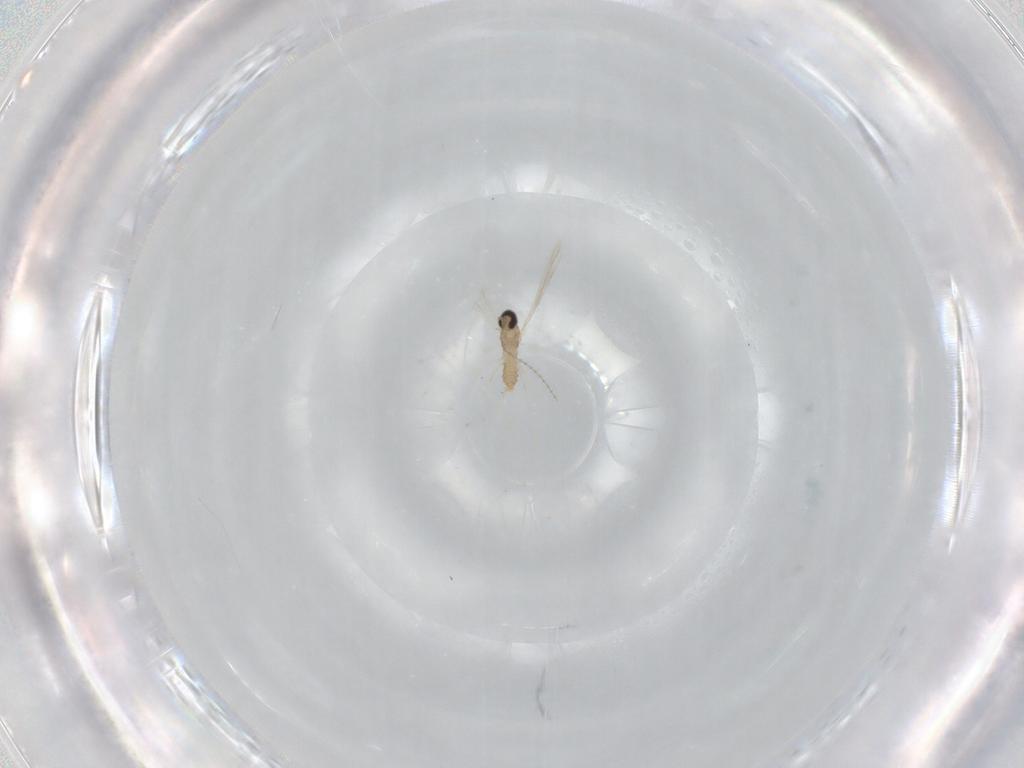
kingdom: Animalia
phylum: Arthropoda
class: Insecta
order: Diptera
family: Cecidomyiidae
